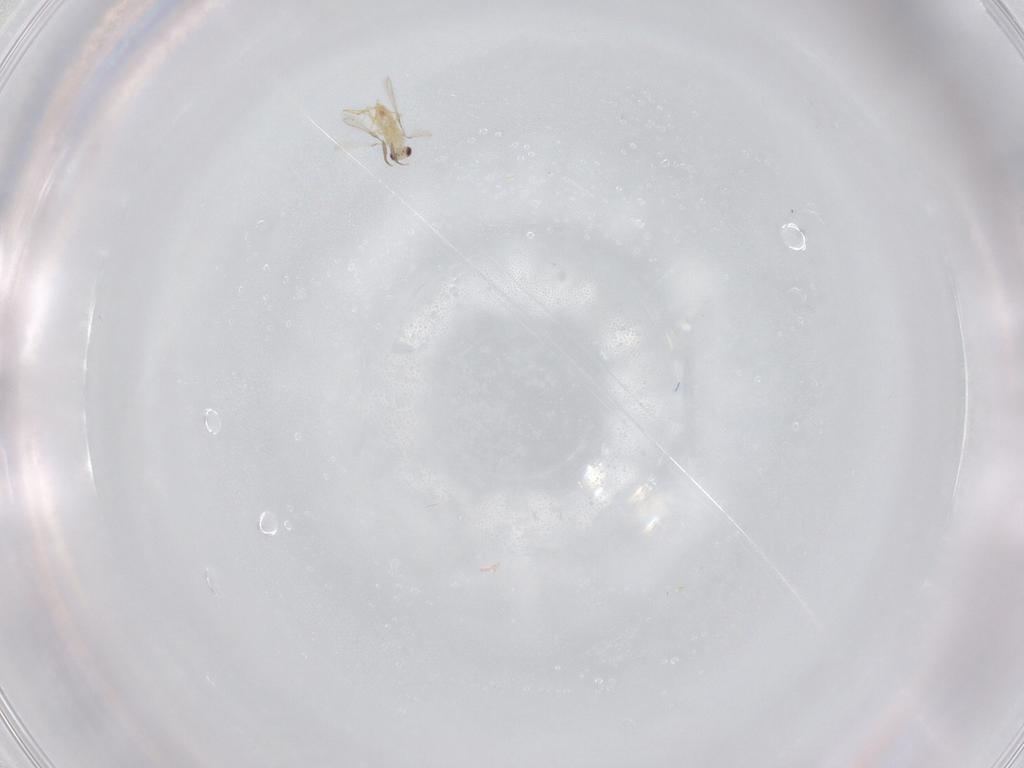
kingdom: Animalia
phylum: Arthropoda
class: Insecta
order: Hymenoptera
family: Mymaridae
